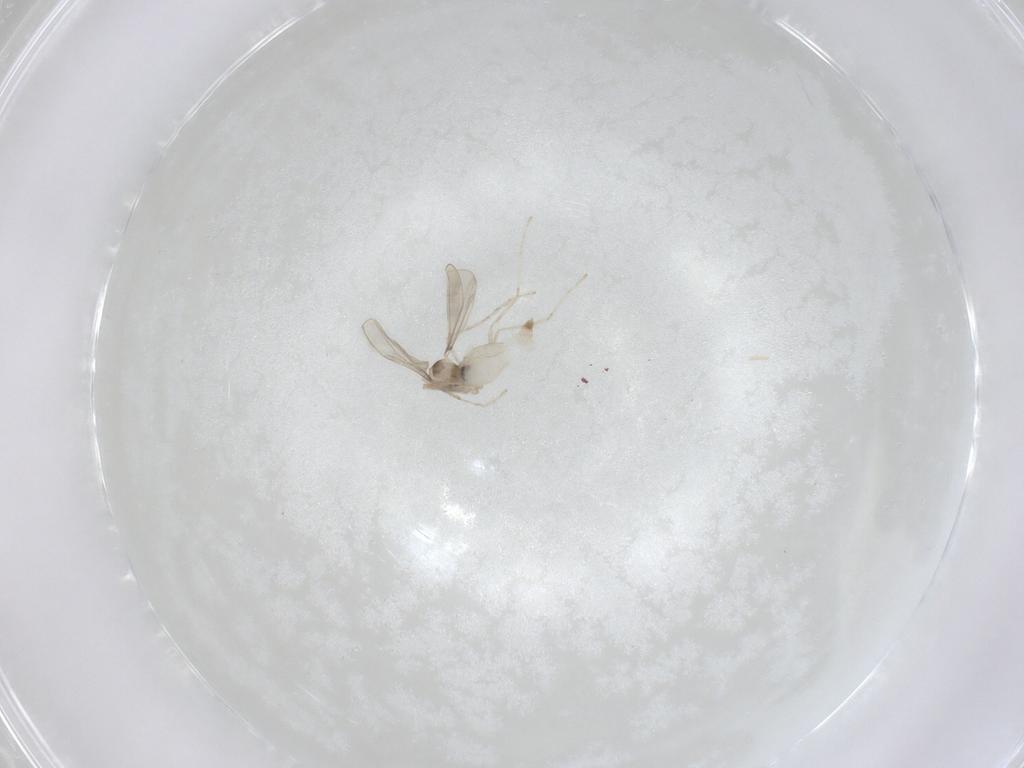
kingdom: Animalia
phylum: Arthropoda
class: Insecta
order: Diptera
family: Cecidomyiidae
